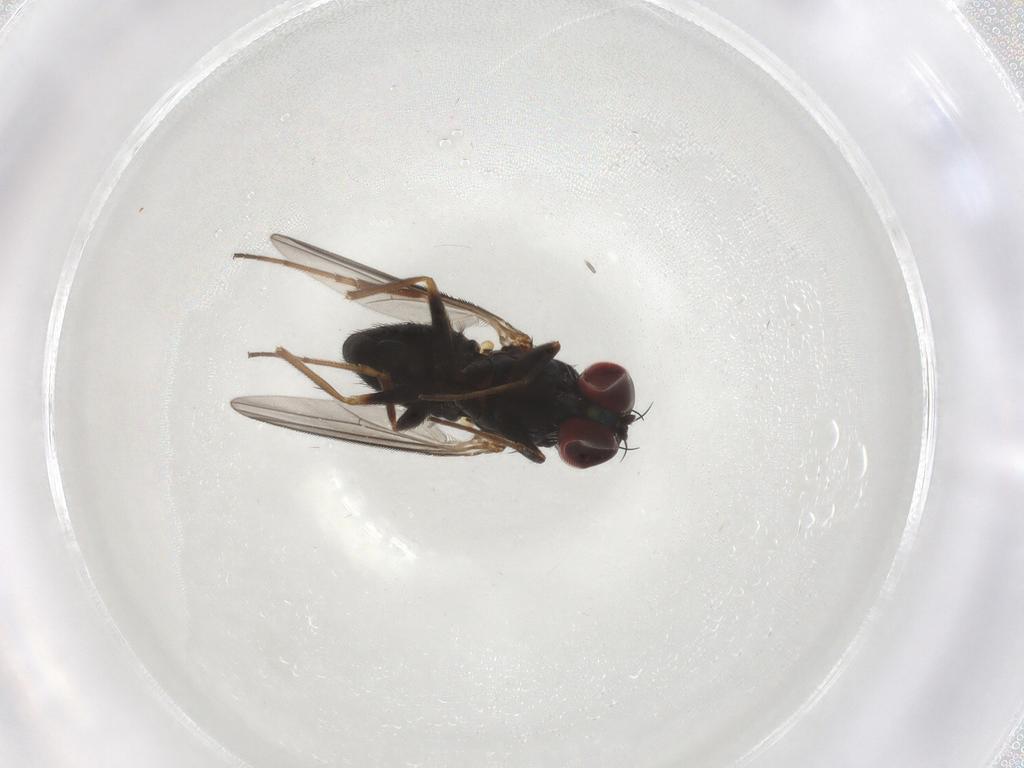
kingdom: Animalia
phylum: Arthropoda
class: Insecta
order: Diptera
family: Dolichopodidae
